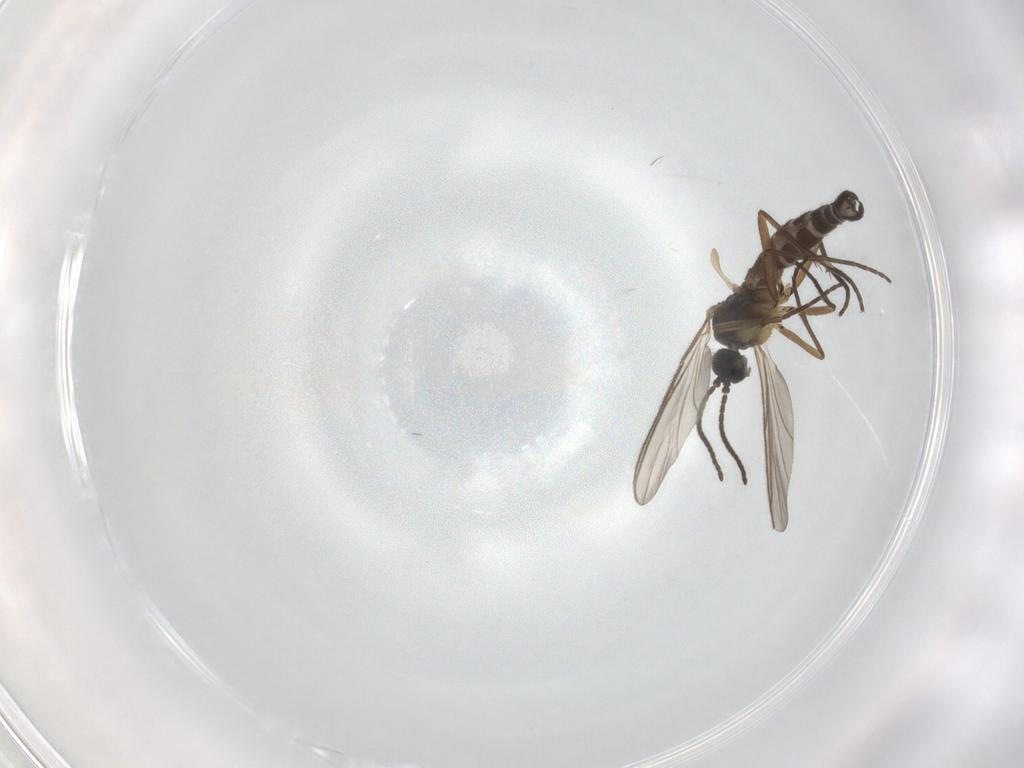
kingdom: Animalia
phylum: Arthropoda
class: Insecta
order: Diptera
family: Sciaridae
